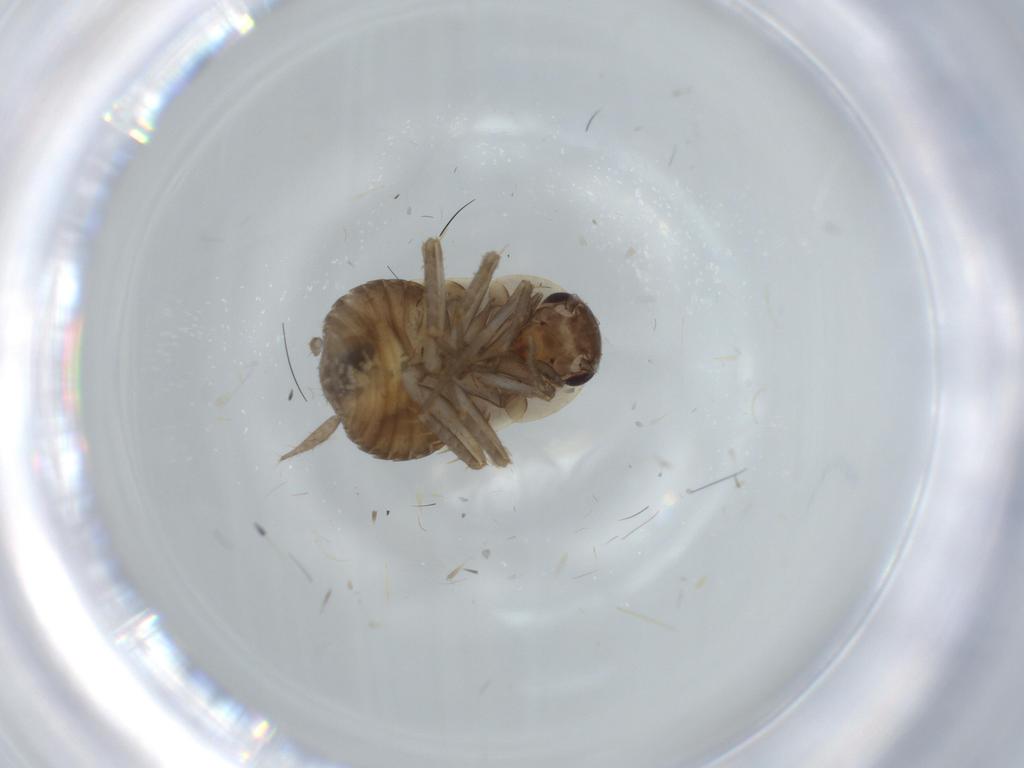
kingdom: Animalia
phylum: Arthropoda
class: Insecta
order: Blattodea
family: Ectobiidae
